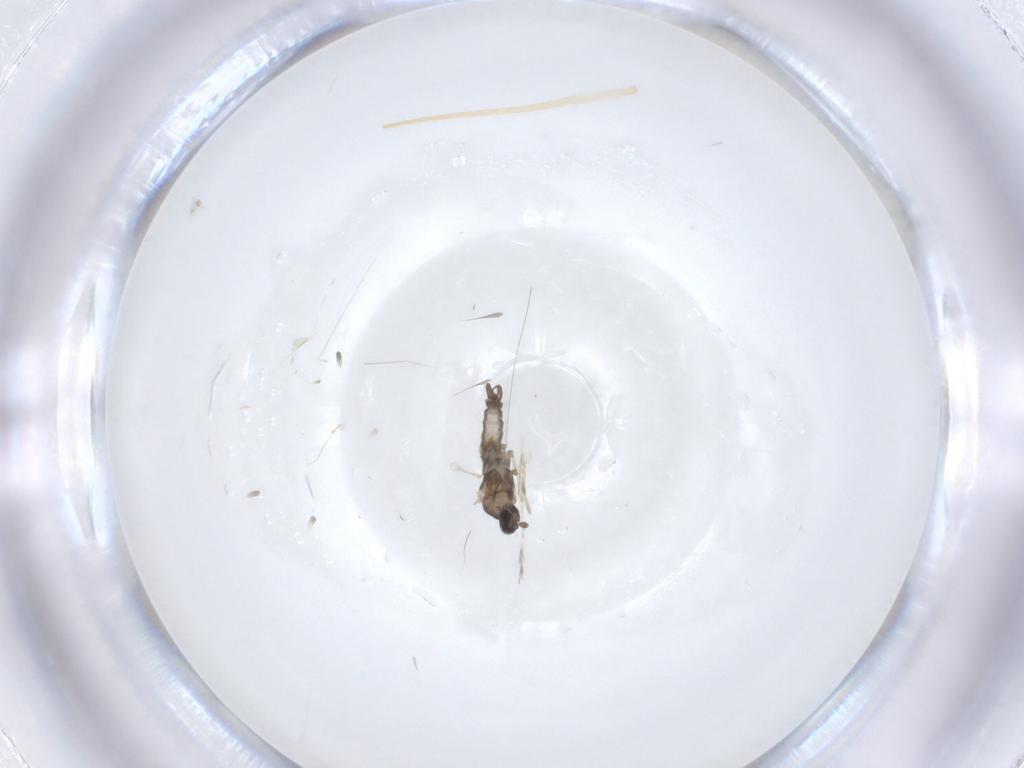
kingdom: Animalia
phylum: Arthropoda
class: Insecta
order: Diptera
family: Cecidomyiidae
